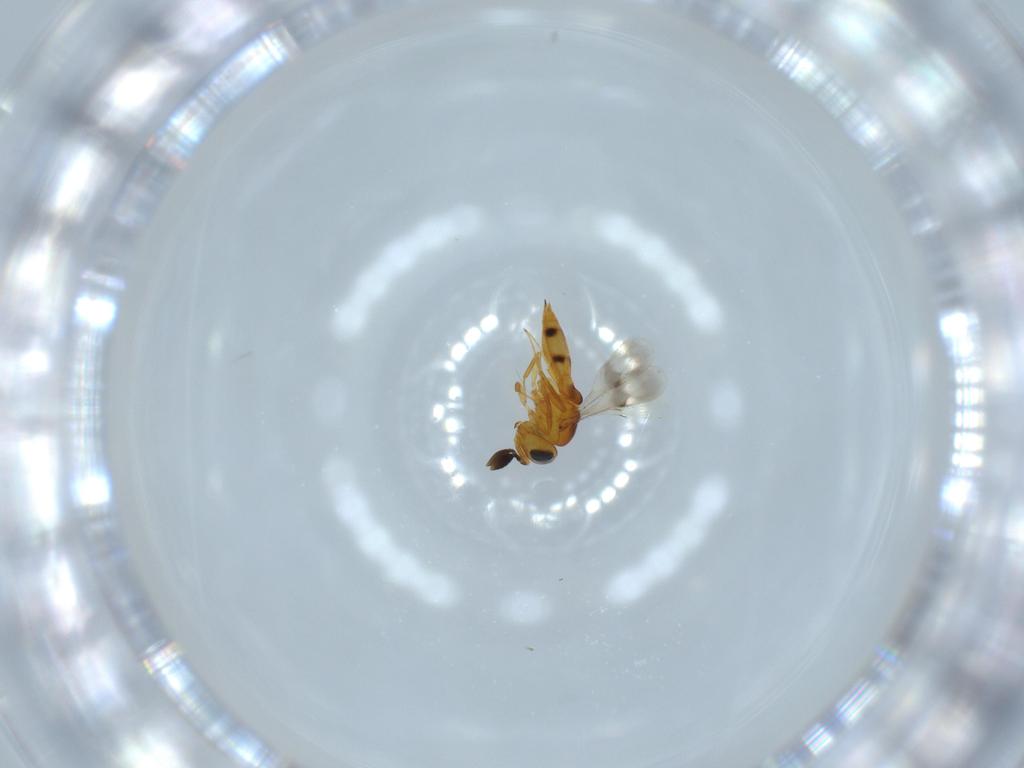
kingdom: Animalia
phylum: Arthropoda
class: Insecta
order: Hymenoptera
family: Scelionidae
